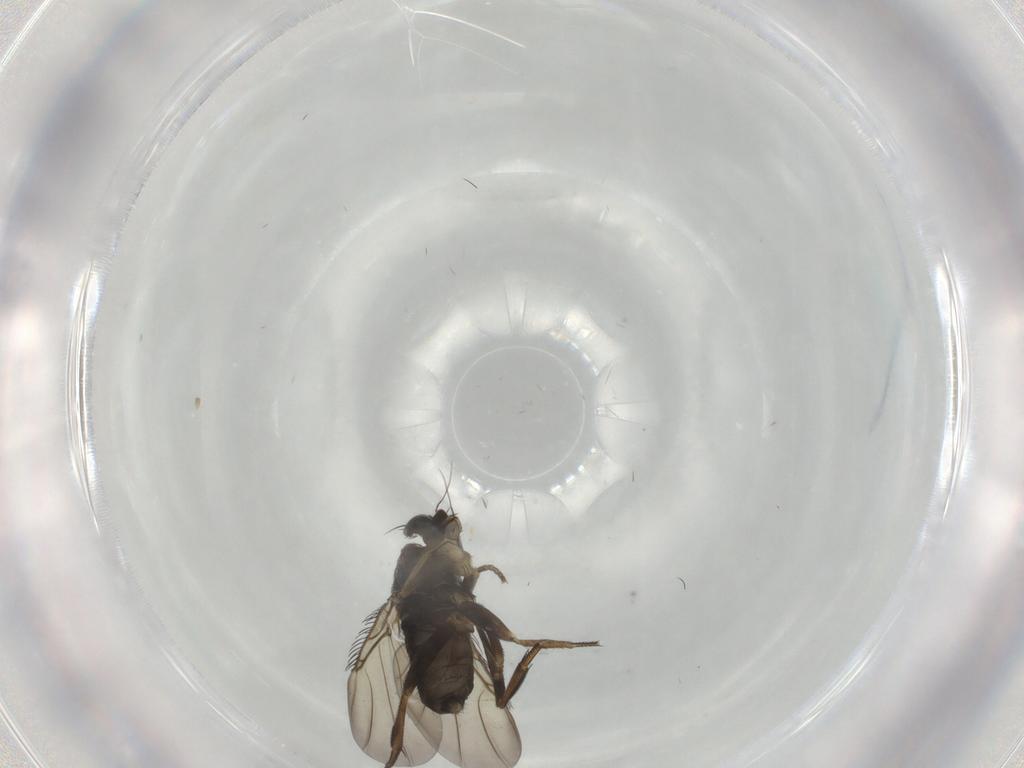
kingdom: Animalia
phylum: Arthropoda
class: Insecta
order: Diptera
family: Phoridae
